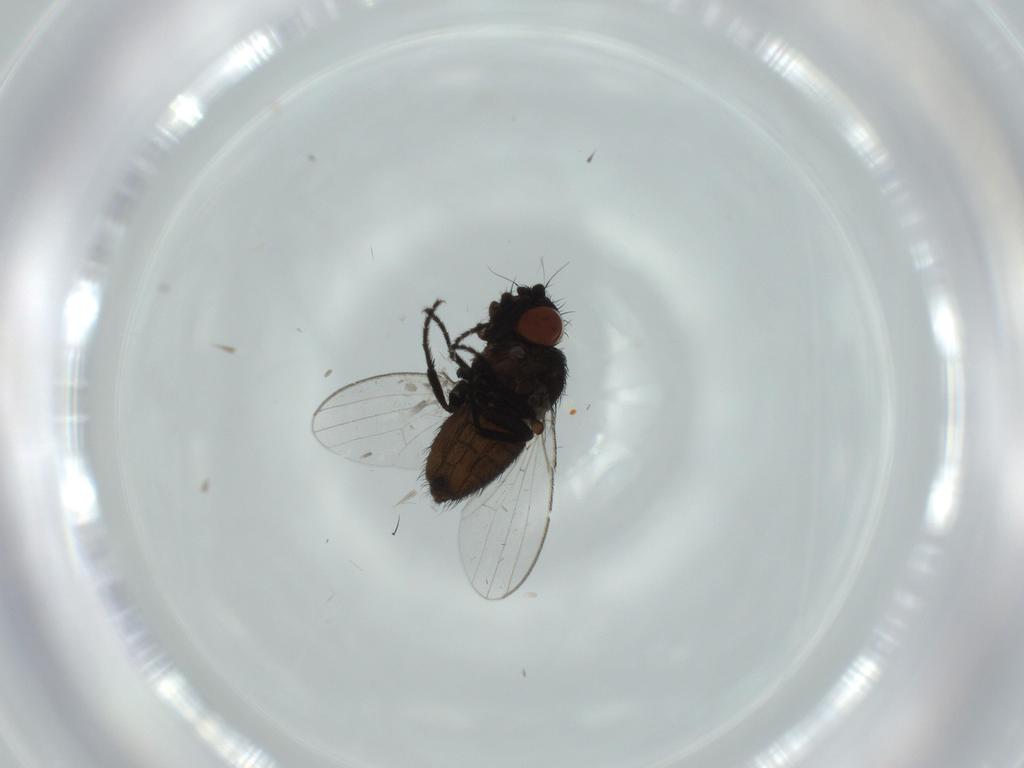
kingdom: Animalia
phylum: Arthropoda
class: Insecta
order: Diptera
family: Milichiidae
